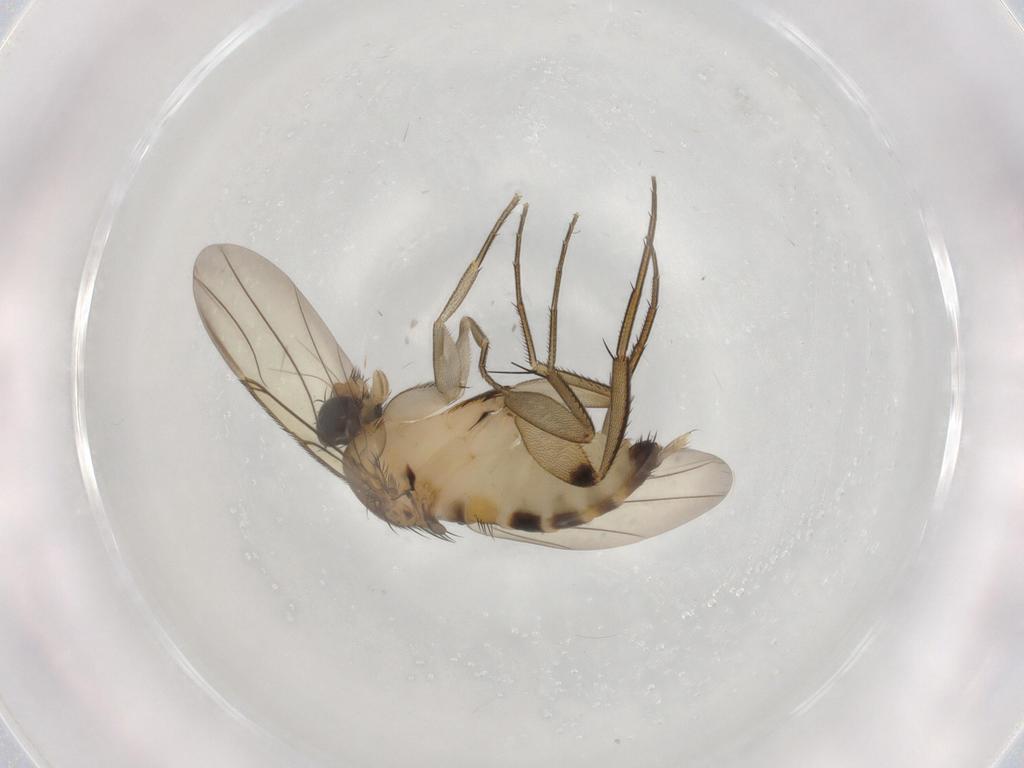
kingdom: Animalia
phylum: Arthropoda
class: Insecta
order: Diptera
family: Phoridae
